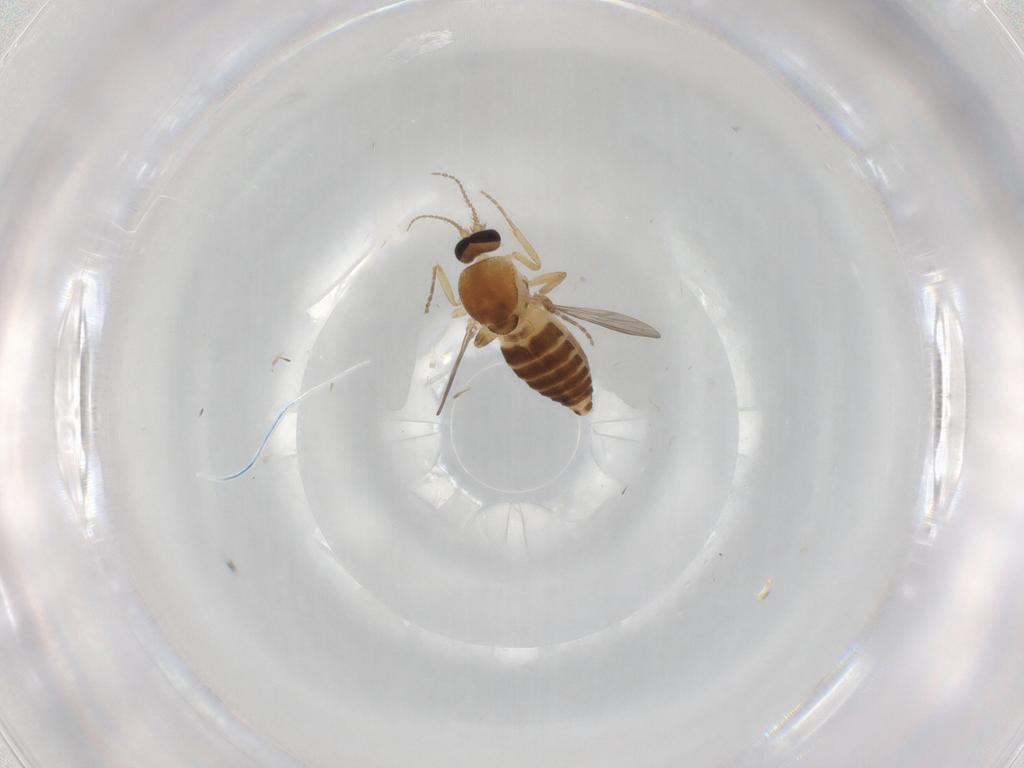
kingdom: Animalia
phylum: Arthropoda
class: Insecta
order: Diptera
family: Ceratopogonidae
